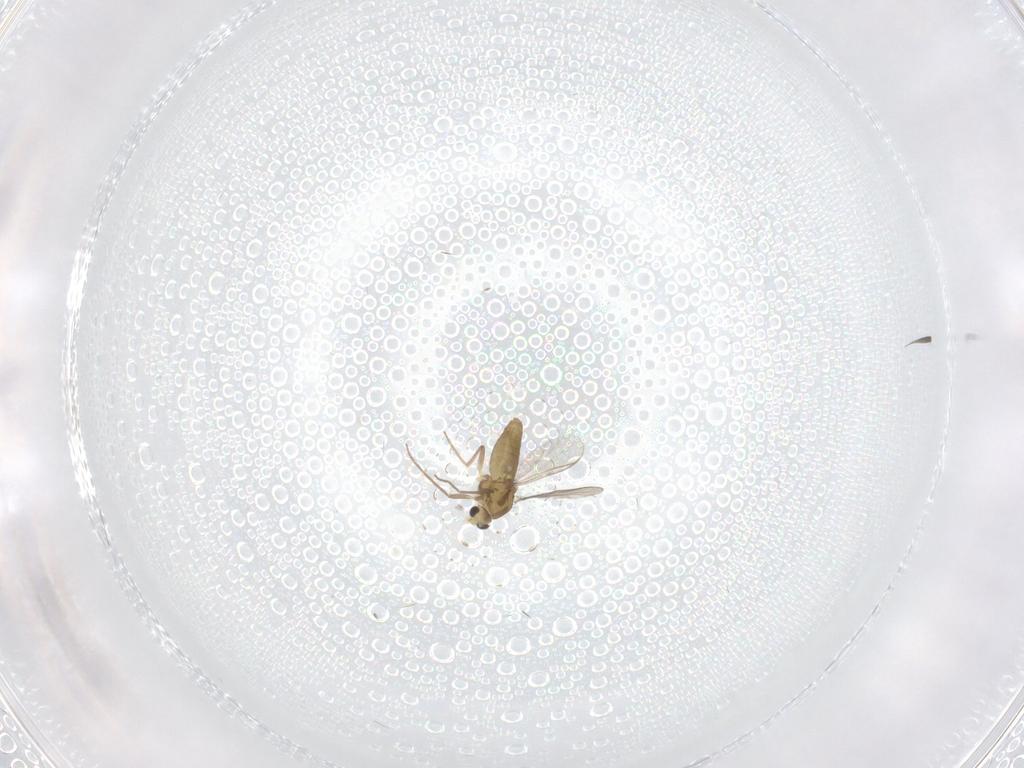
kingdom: Animalia
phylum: Arthropoda
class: Insecta
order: Diptera
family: Chironomidae
